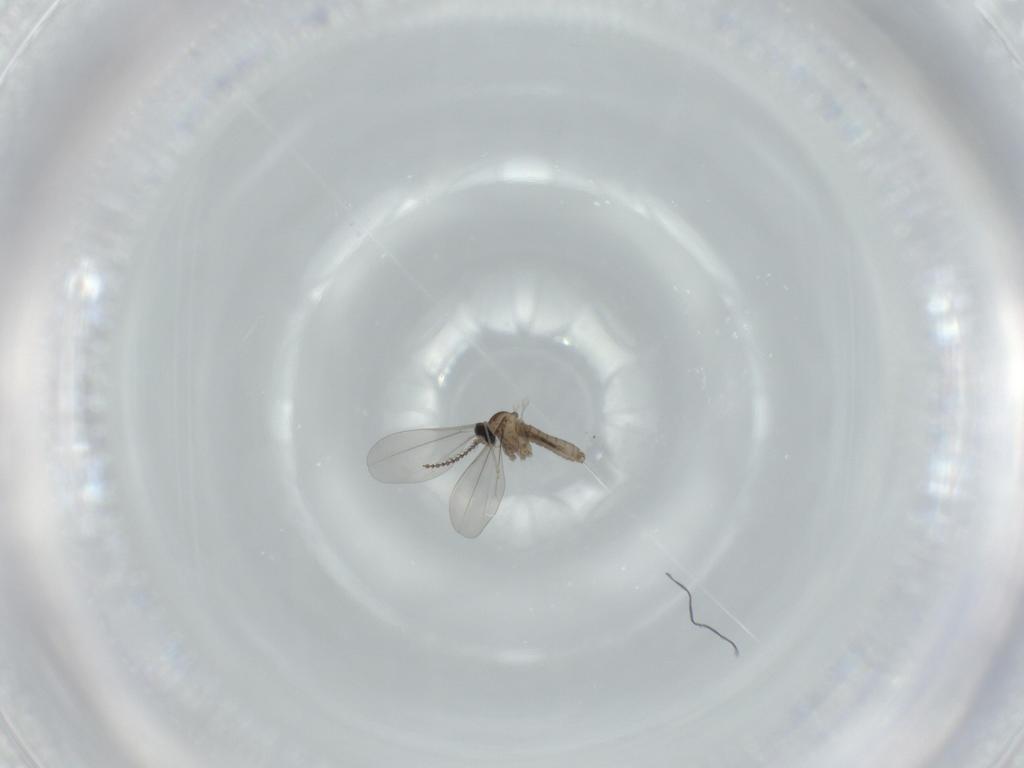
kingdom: Animalia
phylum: Arthropoda
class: Insecta
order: Diptera
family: Cecidomyiidae
